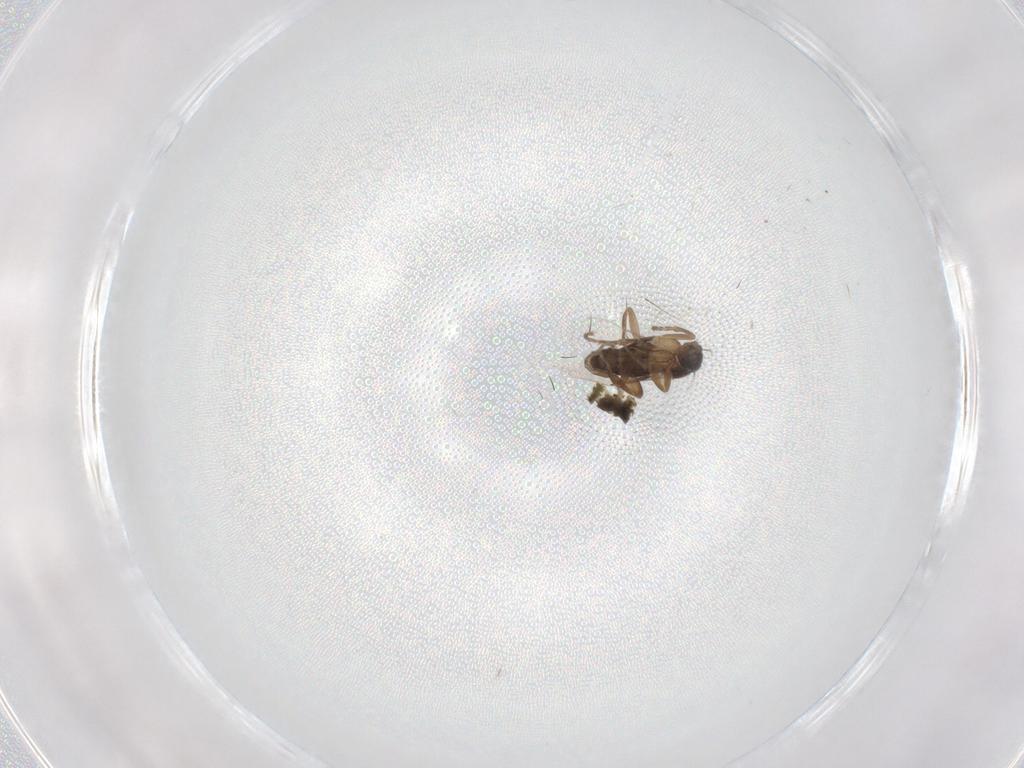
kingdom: Animalia
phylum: Arthropoda
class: Insecta
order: Diptera
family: Phoridae
